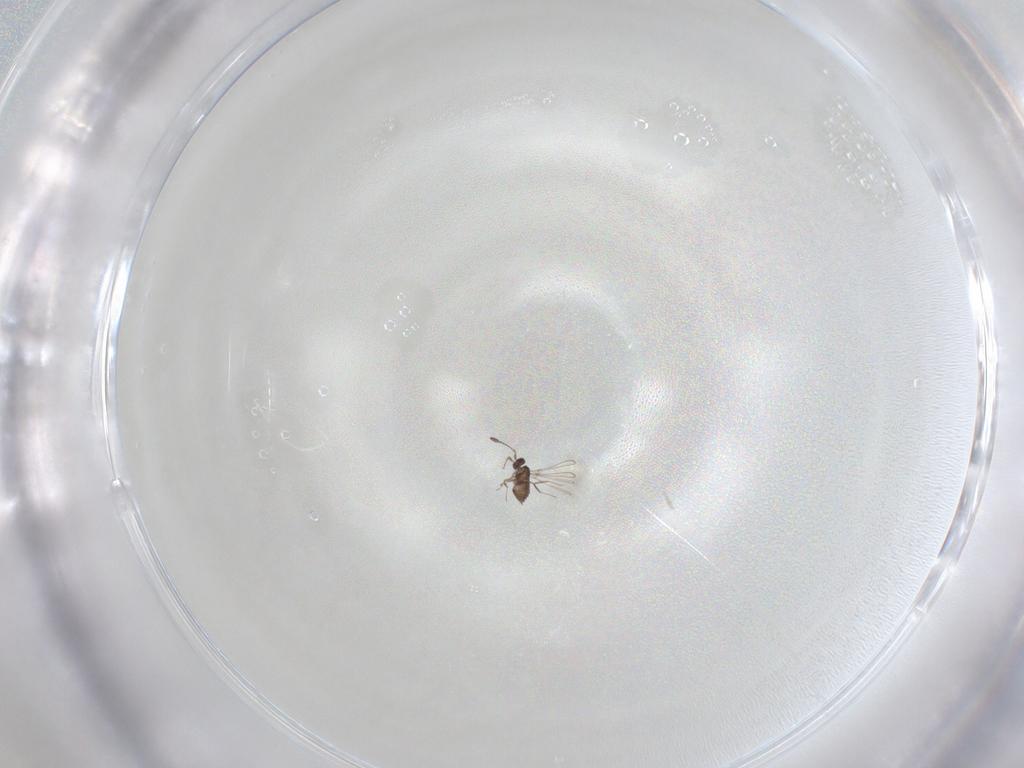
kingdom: Animalia
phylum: Arthropoda
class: Insecta
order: Hymenoptera
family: Mymaridae
